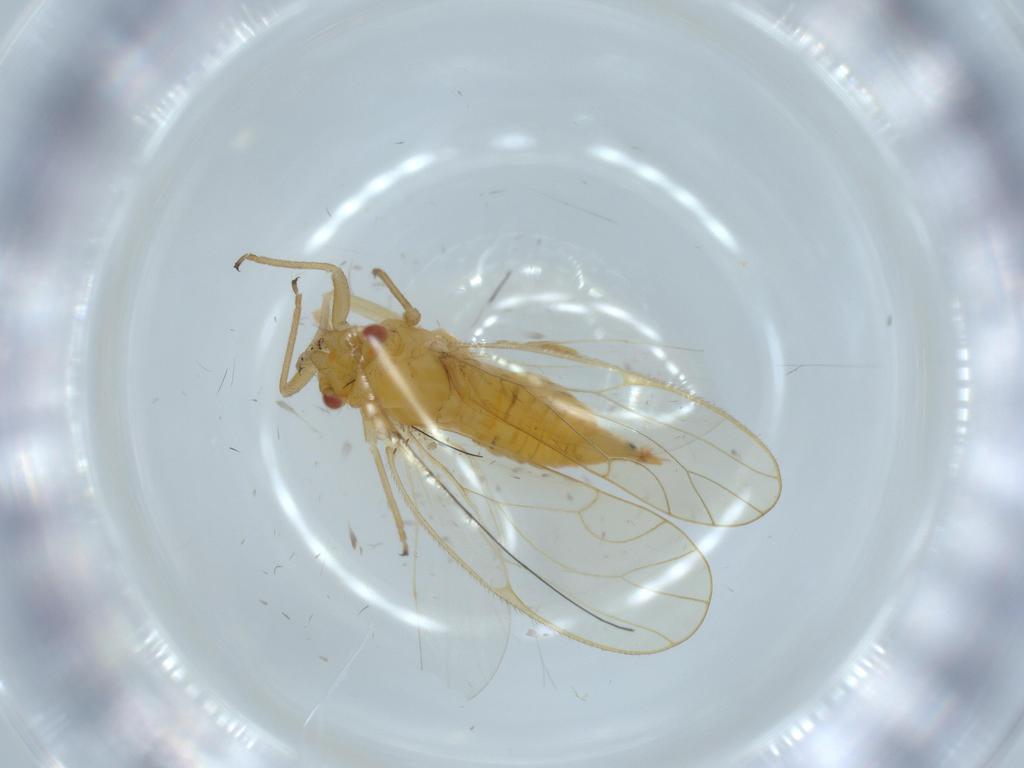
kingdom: Animalia
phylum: Arthropoda
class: Insecta
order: Hemiptera
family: Psyllidae
